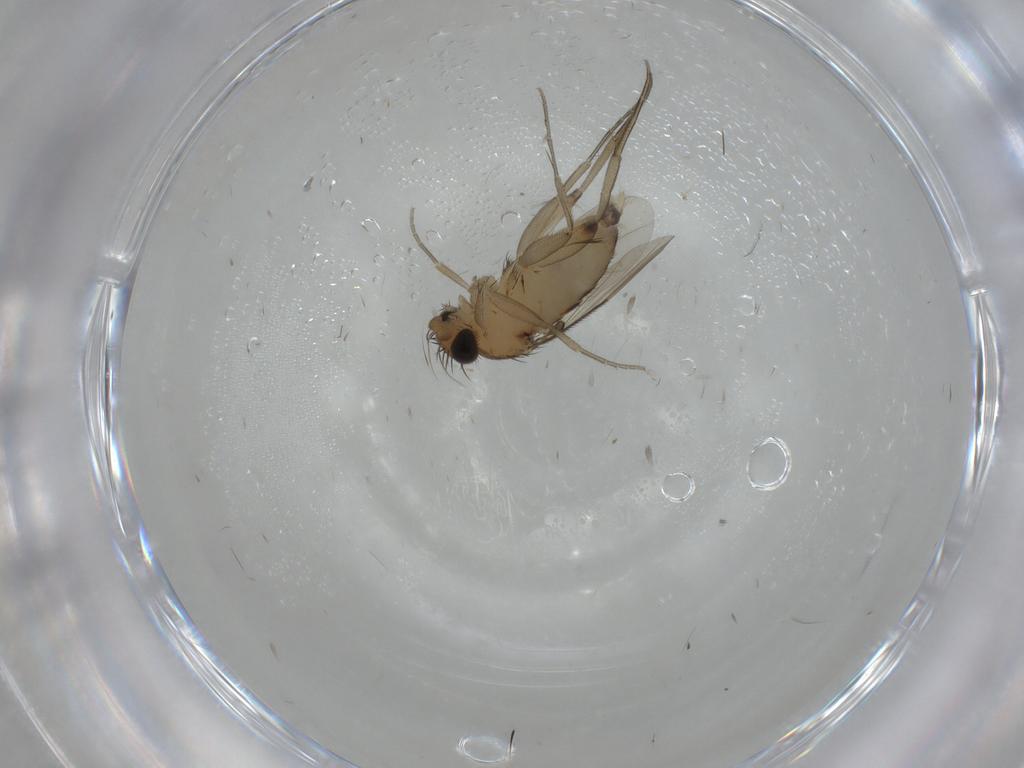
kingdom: Animalia
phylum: Arthropoda
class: Insecta
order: Diptera
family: Phoridae
